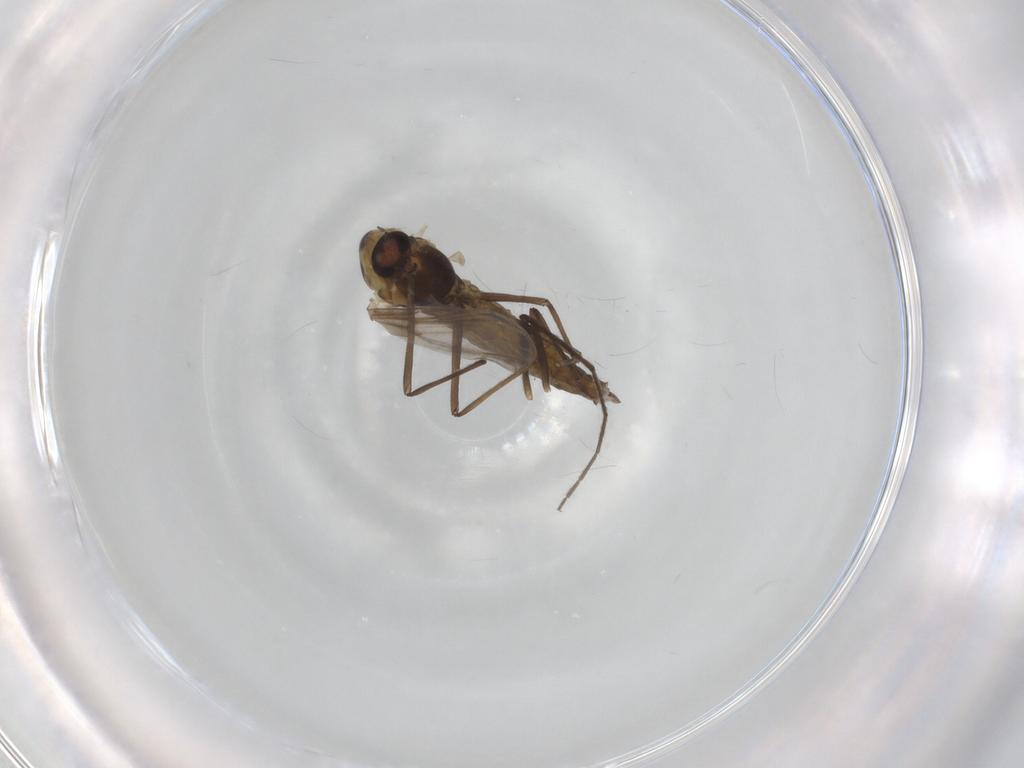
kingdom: Animalia
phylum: Arthropoda
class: Insecta
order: Diptera
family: Chironomidae
